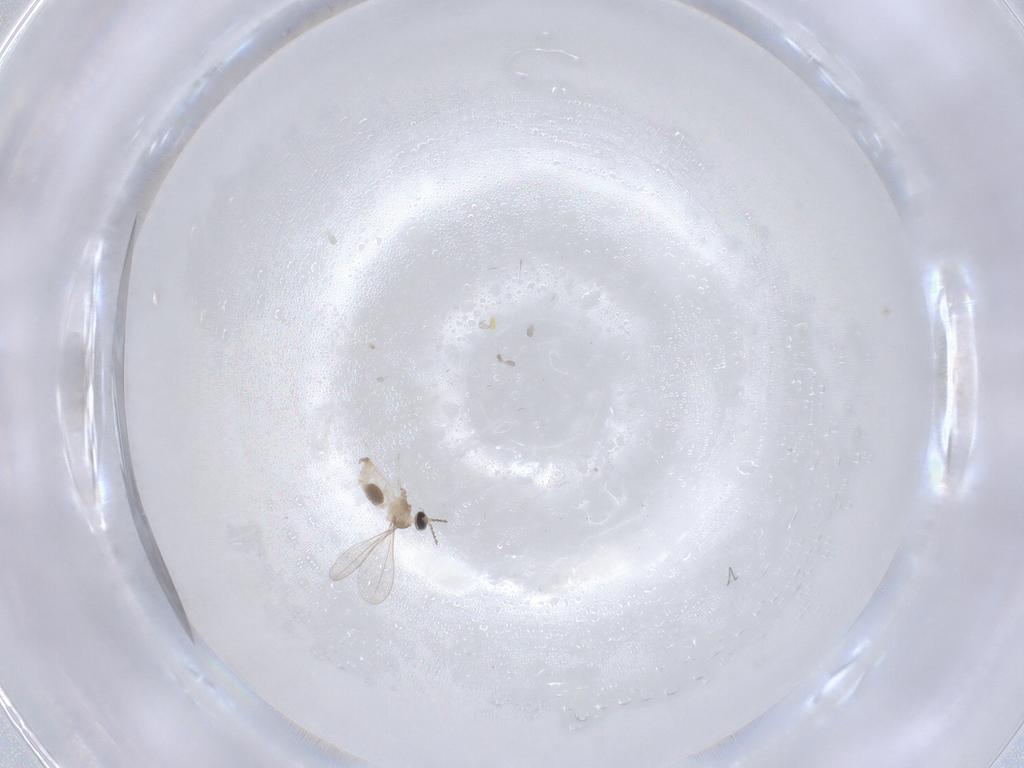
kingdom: Animalia
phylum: Arthropoda
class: Insecta
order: Diptera
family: Cecidomyiidae
